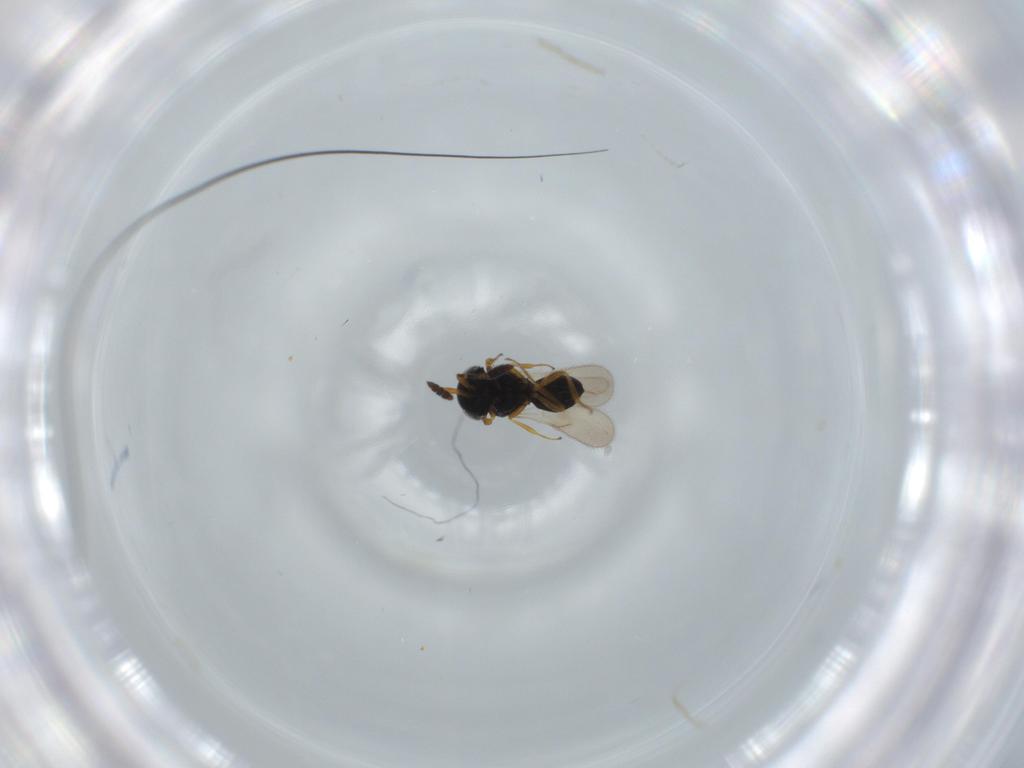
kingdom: Animalia
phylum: Arthropoda
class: Insecta
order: Hymenoptera
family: Scelionidae
